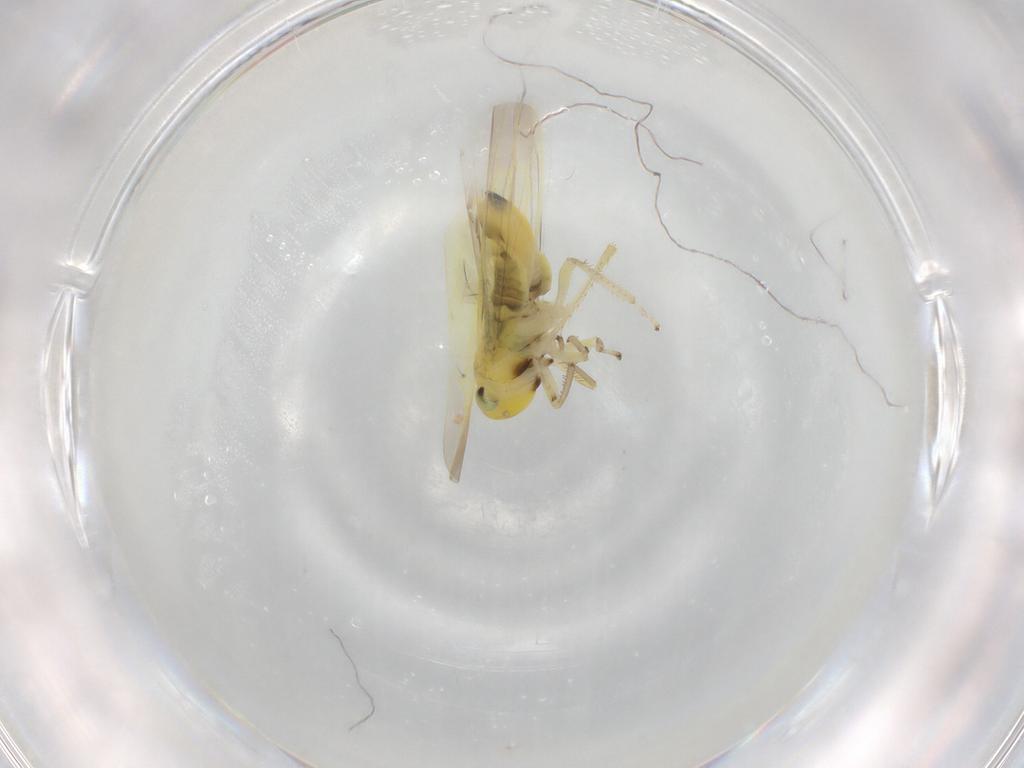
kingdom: Animalia
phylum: Arthropoda
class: Insecta
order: Hemiptera
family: Cicadellidae
